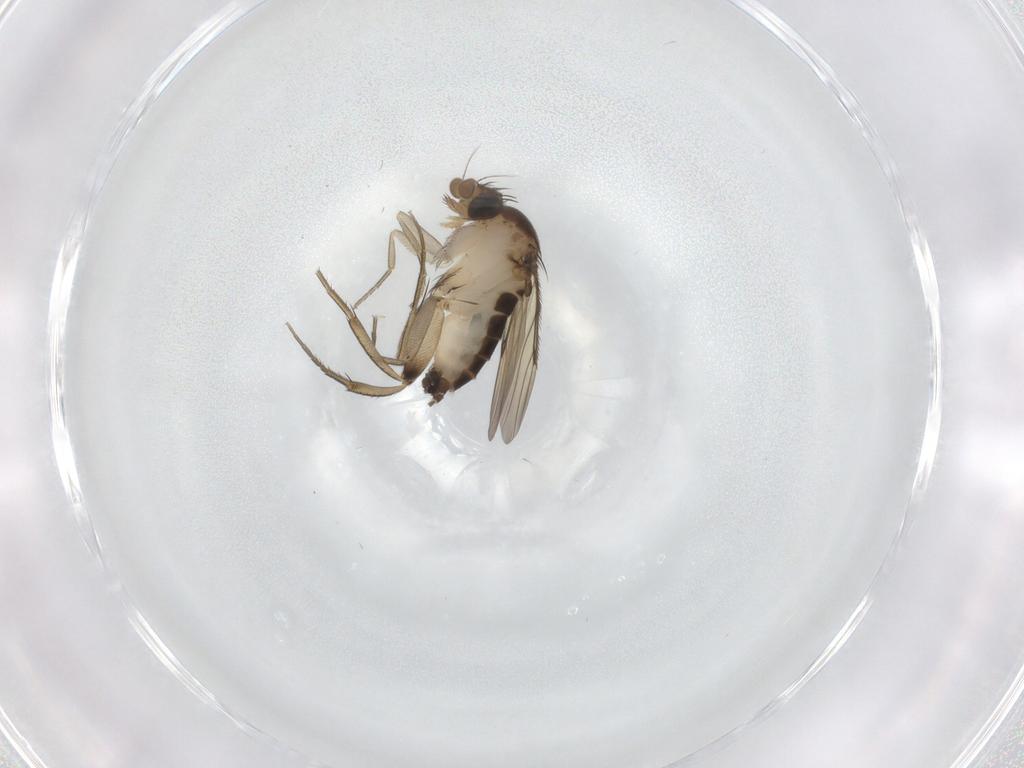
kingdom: Animalia
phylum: Arthropoda
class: Insecta
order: Diptera
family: Phoridae
